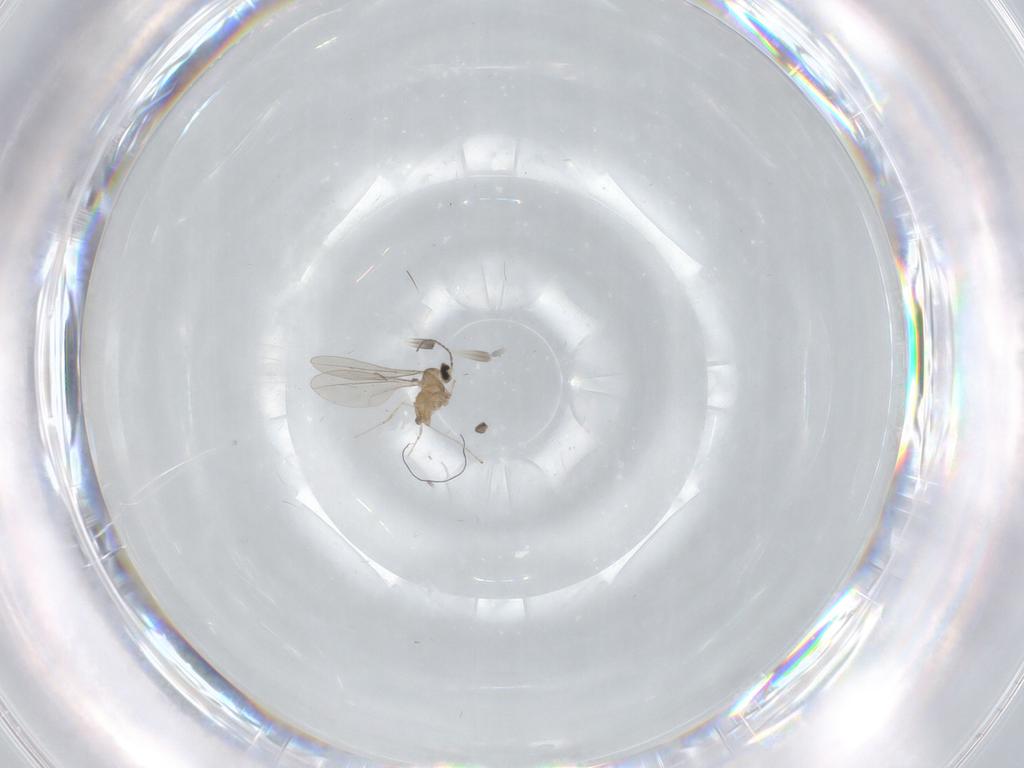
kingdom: Animalia
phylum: Arthropoda
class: Insecta
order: Diptera
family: Cecidomyiidae
